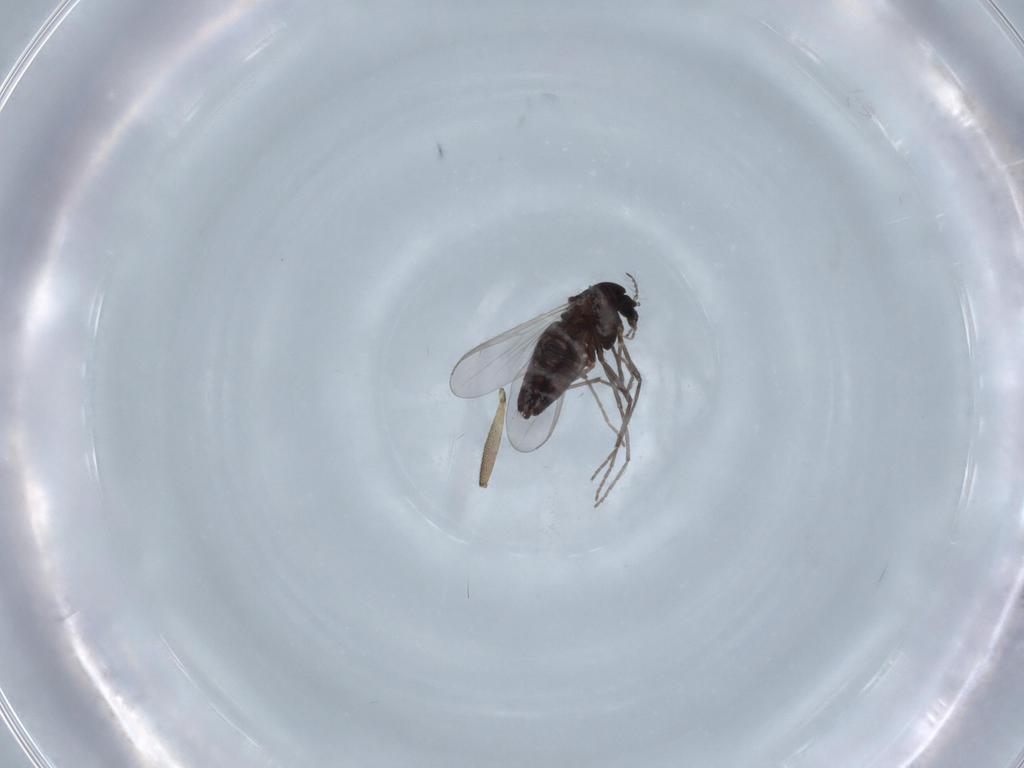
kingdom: Animalia
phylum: Arthropoda
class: Insecta
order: Diptera
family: Chironomidae
